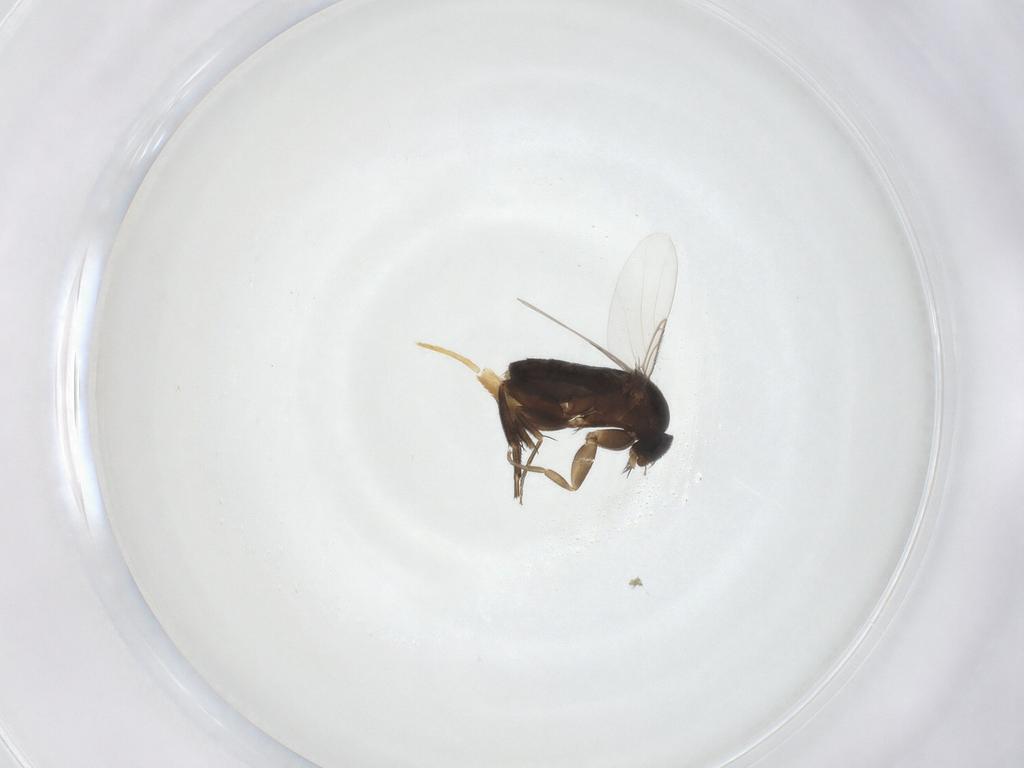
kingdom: Animalia
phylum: Arthropoda
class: Insecta
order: Diptera
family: Phoridae
